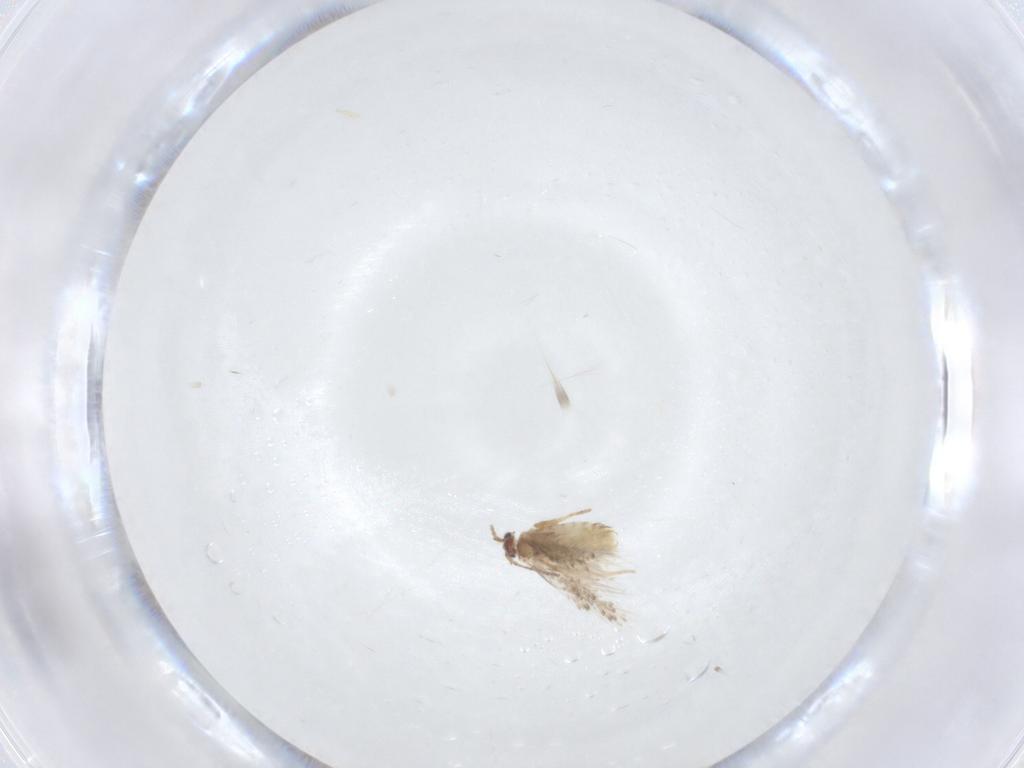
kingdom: Animalia
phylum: Arthropoda
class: Insecta
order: Lepidoptera
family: Nepticulidae
